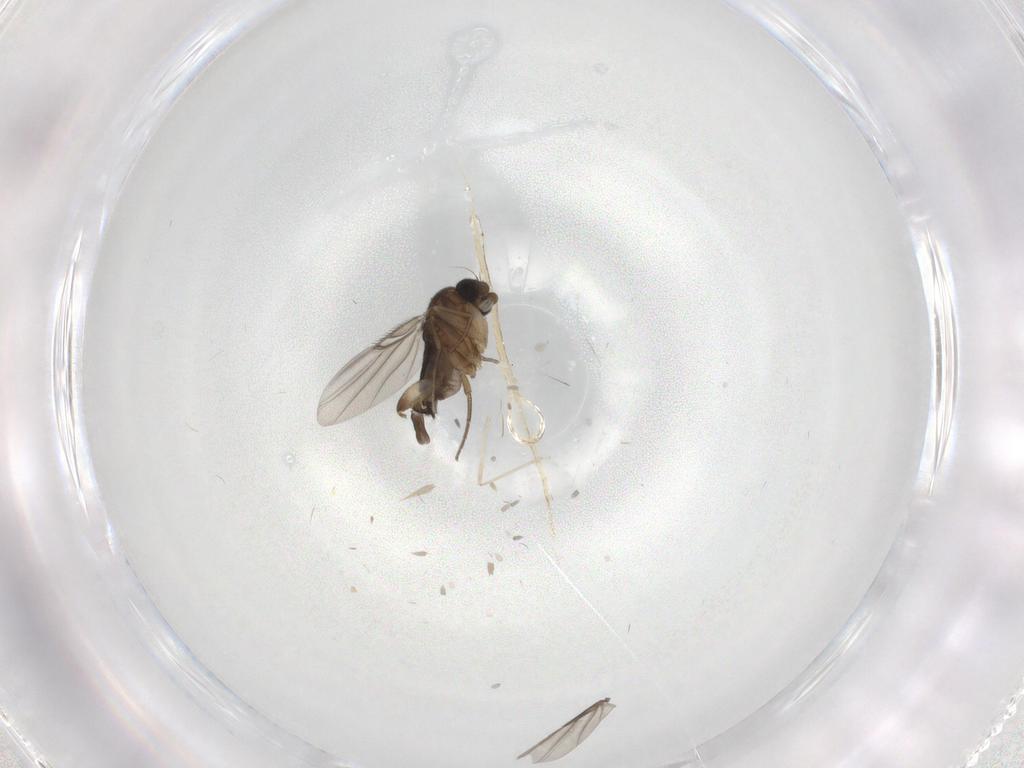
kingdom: Animalia
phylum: Arthropoda
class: Insecta
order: Diptera
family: Phoridae
